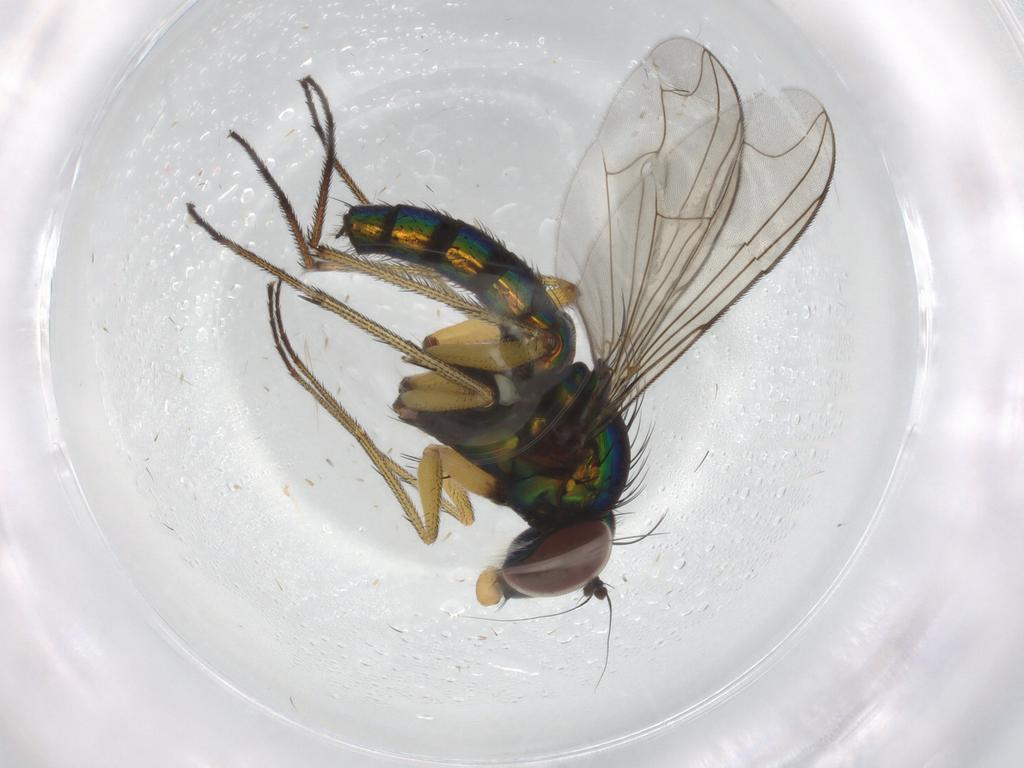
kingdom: Animalia
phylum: Arthropoda
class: Insecta
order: Diptera
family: Dolichopodidae
